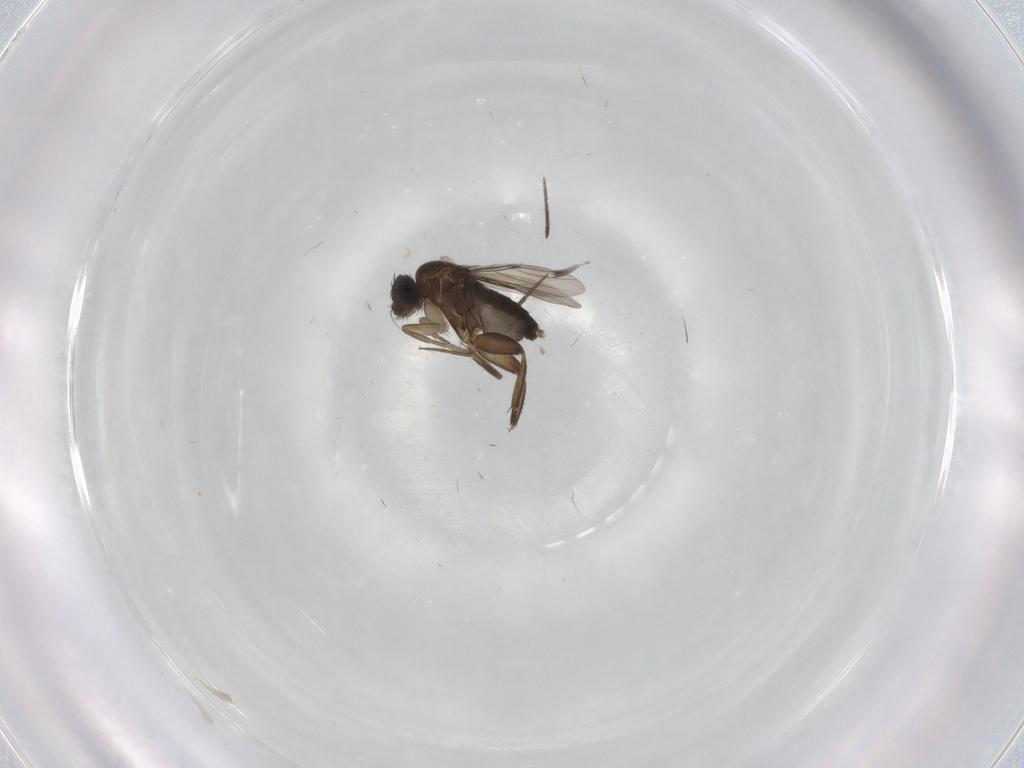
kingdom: Animalia
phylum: Arthropoda
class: Insecta
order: Diptera
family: Phoridae
